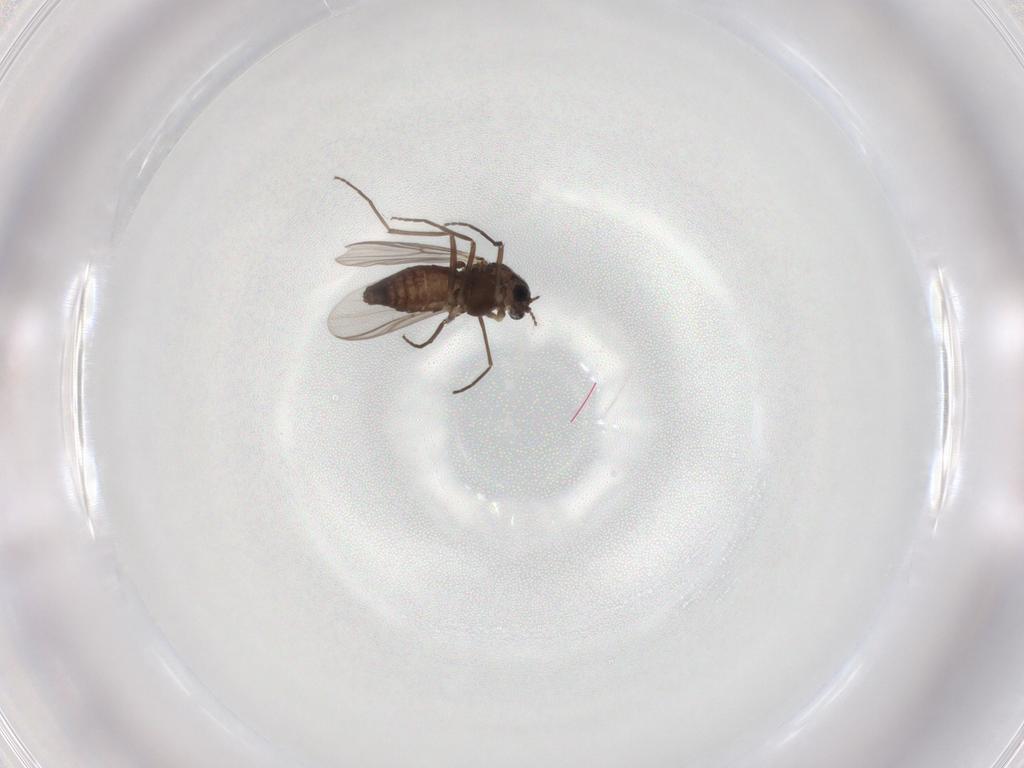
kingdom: Animalia
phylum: Arthropoda
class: Insecta
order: Diptera
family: Chironomidae
